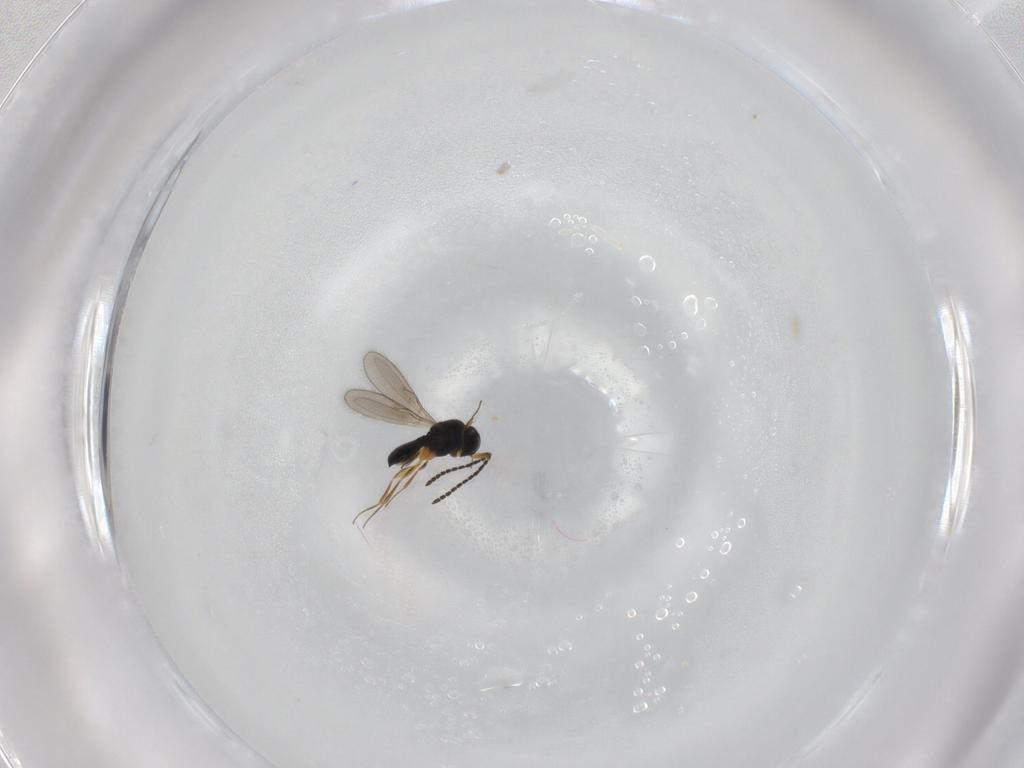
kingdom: Animalia
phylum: Arthropoda
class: Insecta
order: Hymenoptera
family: Scelionidae
